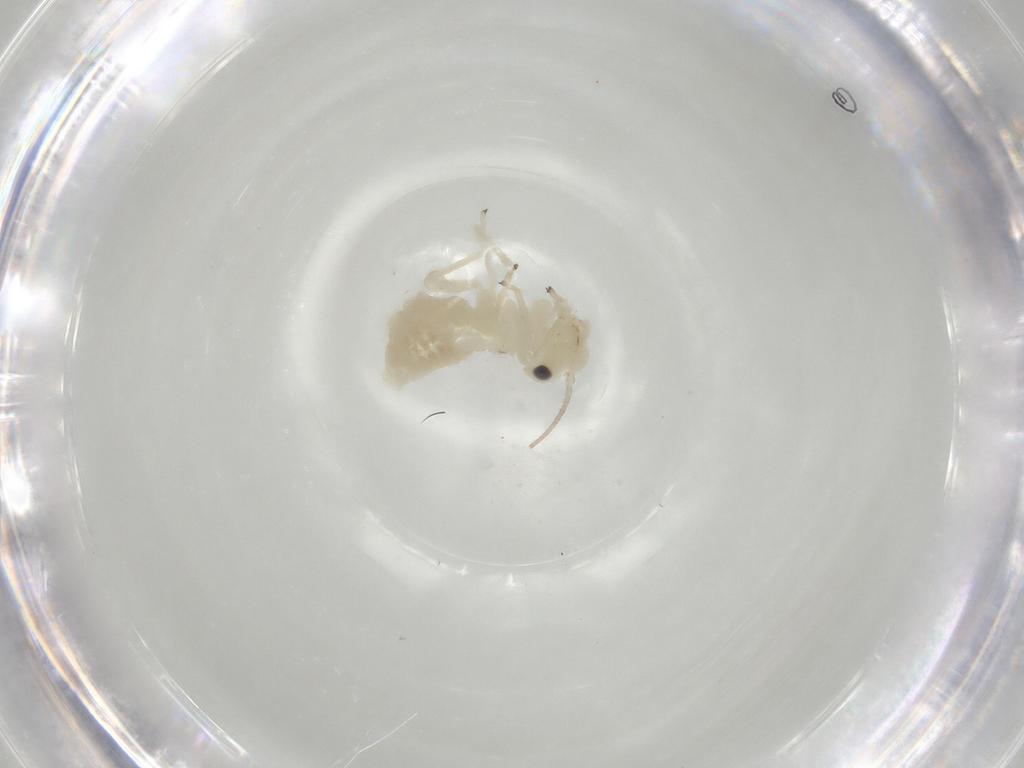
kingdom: Animalia
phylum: Arthropoda
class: Insecta
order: Psocodea
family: Caeciliusidae
